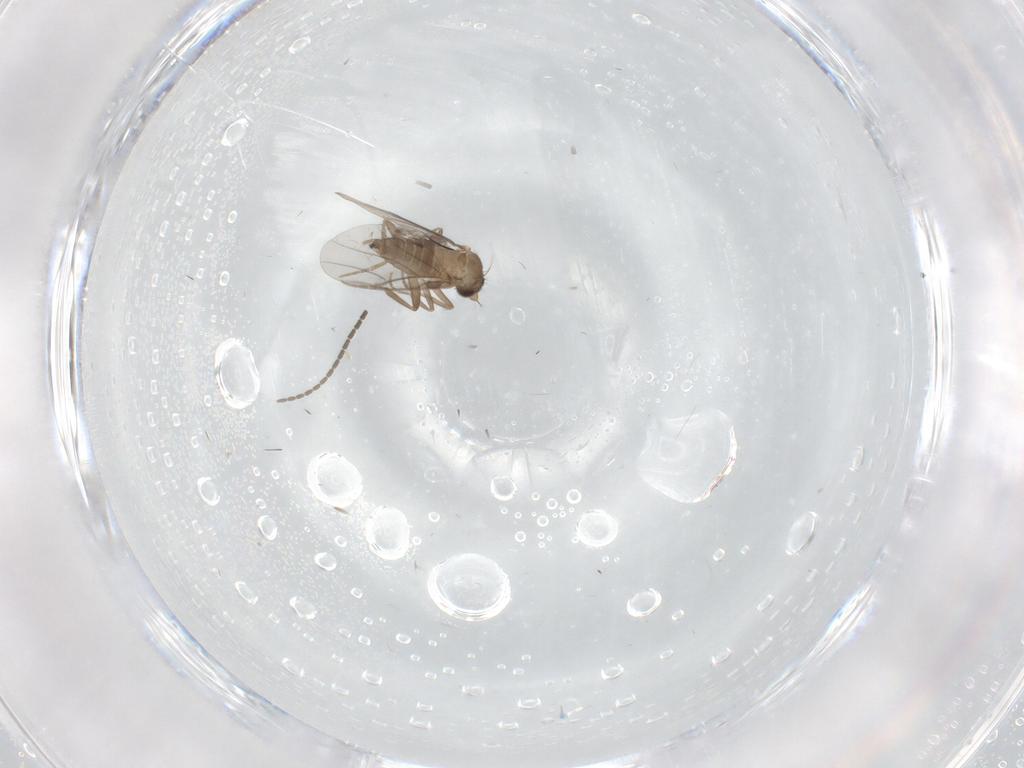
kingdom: Animalia
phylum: Arthropoda
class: Insecta
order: Diptera
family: Sciaridae
